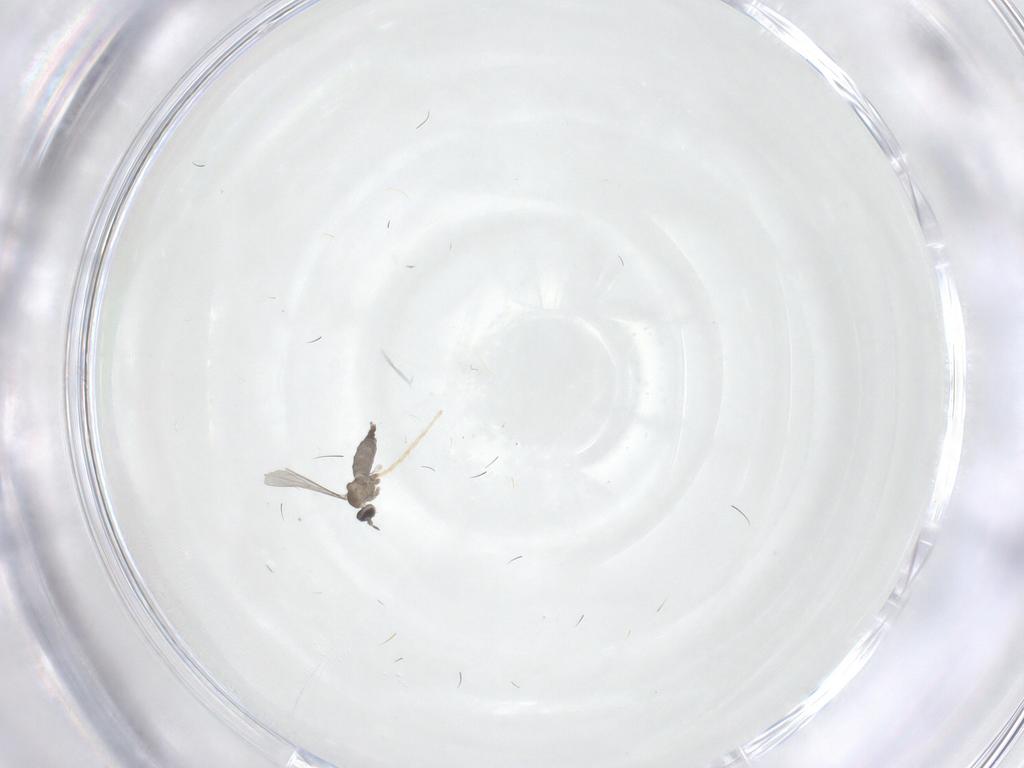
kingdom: Animalia
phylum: Arthropoda
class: Insecta
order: Diptera
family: Cecidomyiidae
